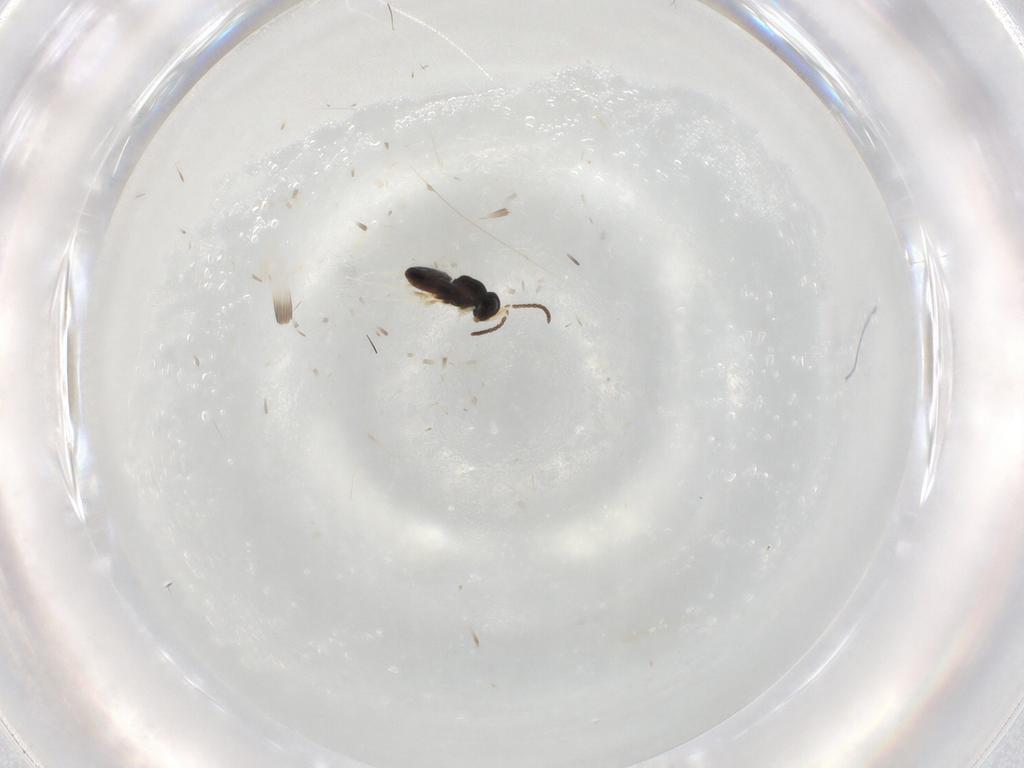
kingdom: Animalia
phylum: Arthropoda
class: Insecta
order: Hymenoptera
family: Scelionidae
